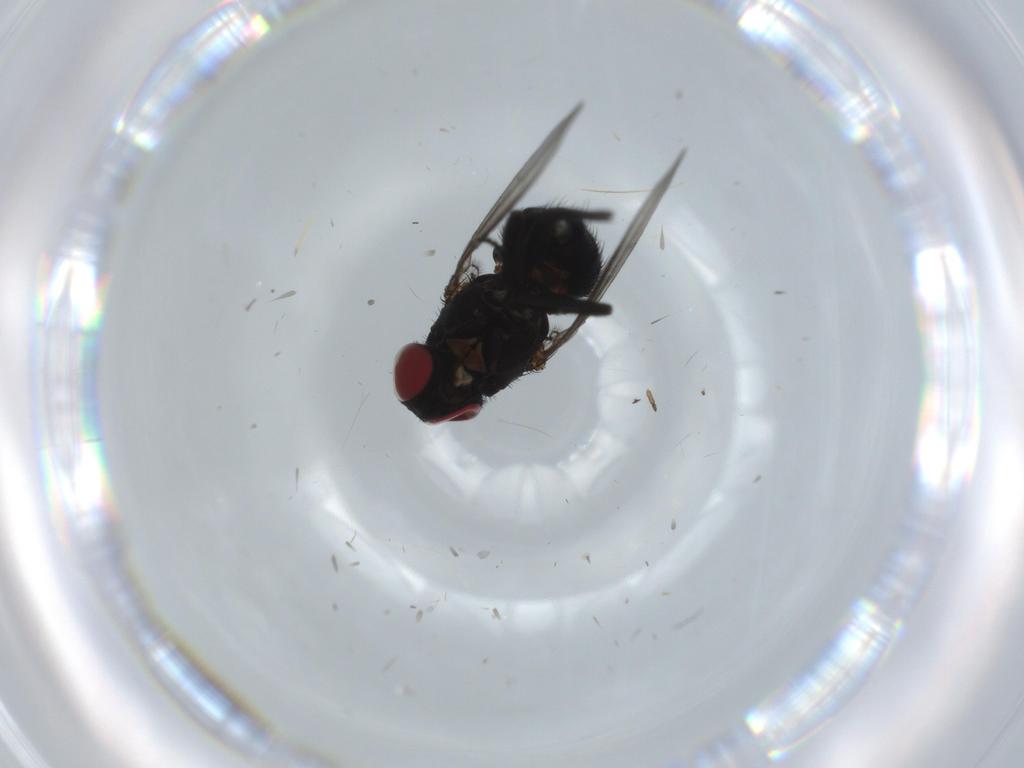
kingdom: Animalia
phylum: Arthropoda
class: Insecta
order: Diptera
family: Agromyzidae
